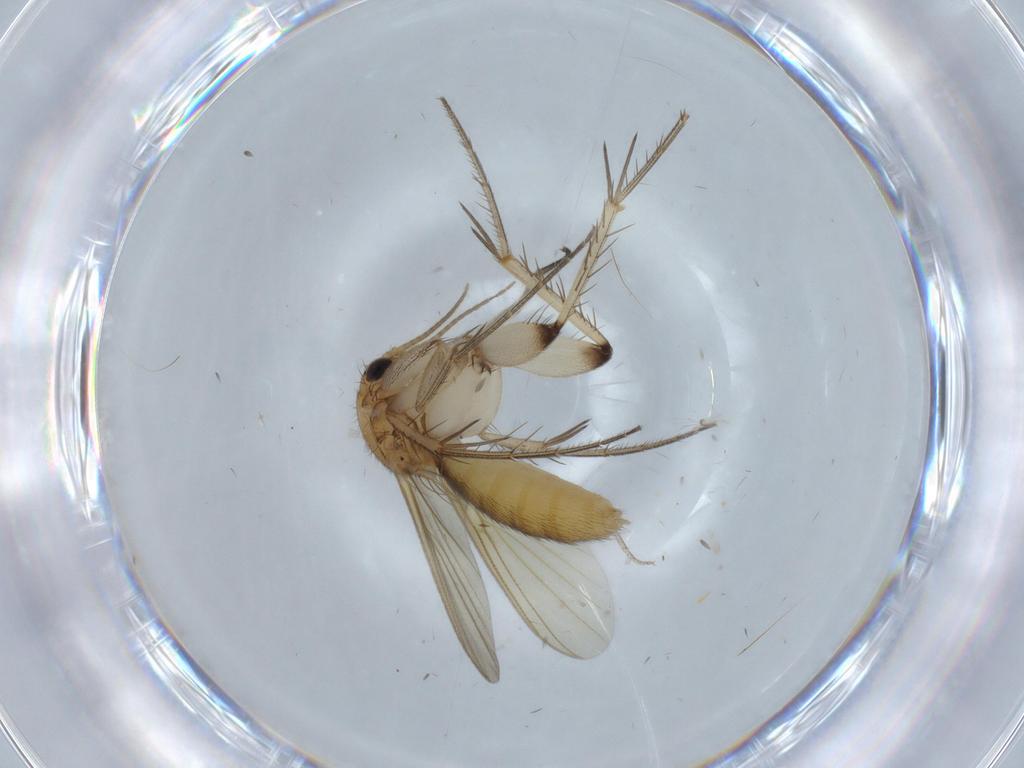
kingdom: Animalia
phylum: Arthropoda
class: Insecta
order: Diptera
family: Mycetophilidae
